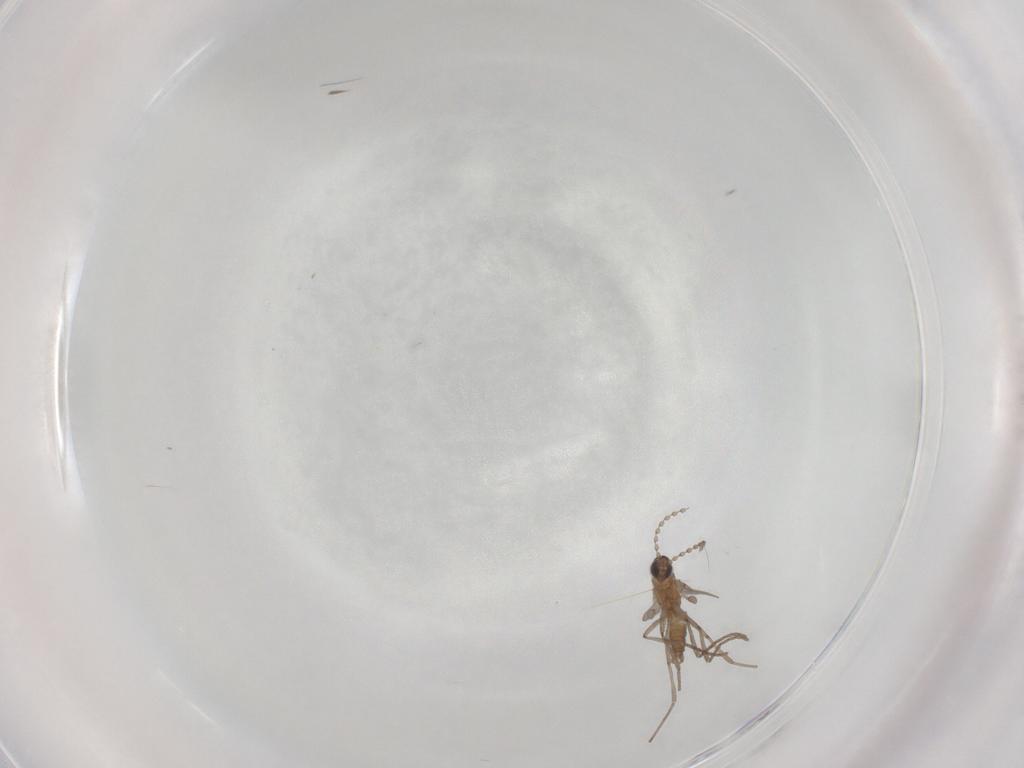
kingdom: Animalia
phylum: Arthropoda
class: Insecta
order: Diptera
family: Cecidomyiidae
